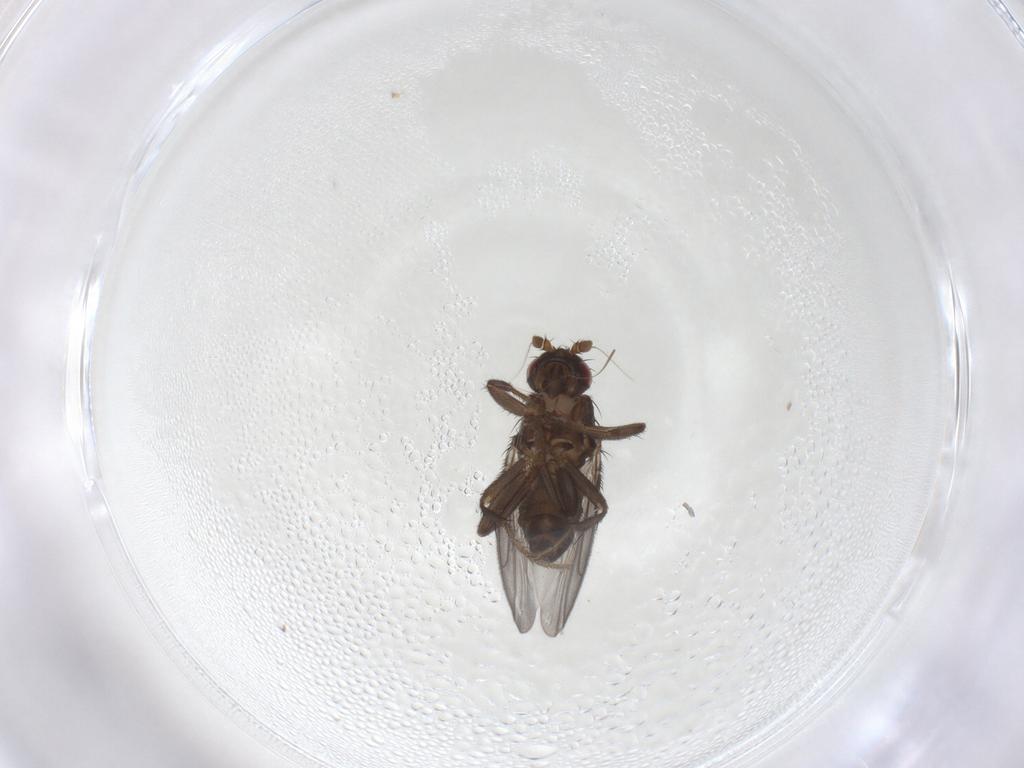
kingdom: Animalia
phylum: Arthropoda
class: Insecta
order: Diptera
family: Sphaeroceridae
